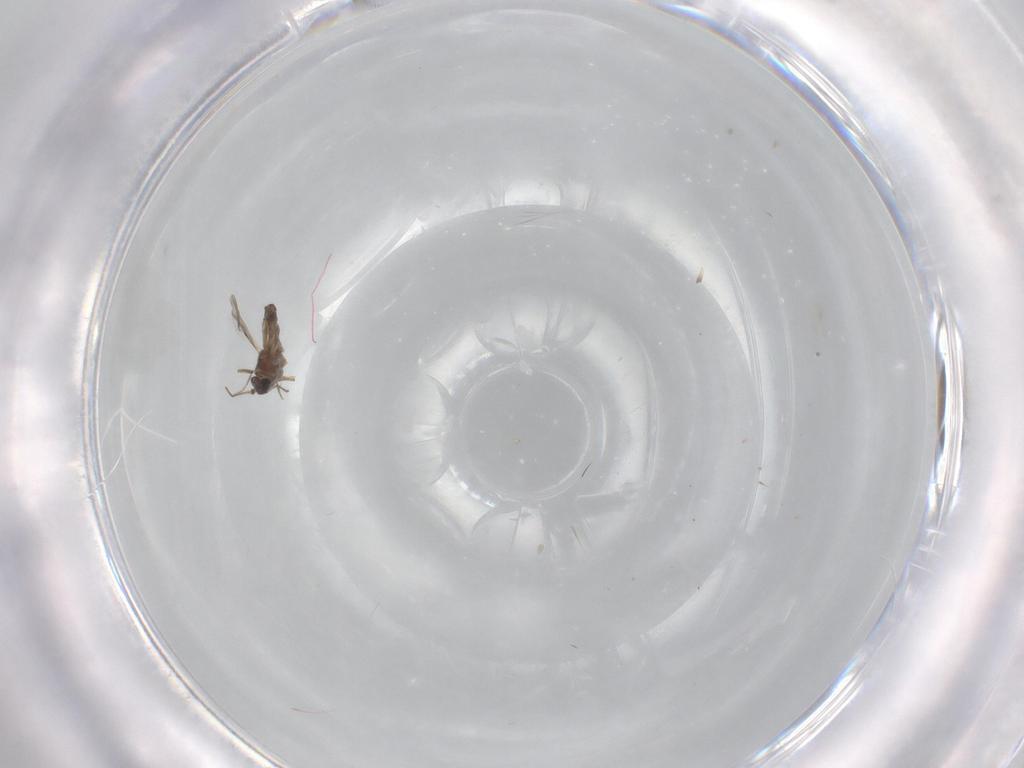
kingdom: Animalia
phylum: Arthropoda
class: Insecta
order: Diptera
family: Ceratopogonidae
